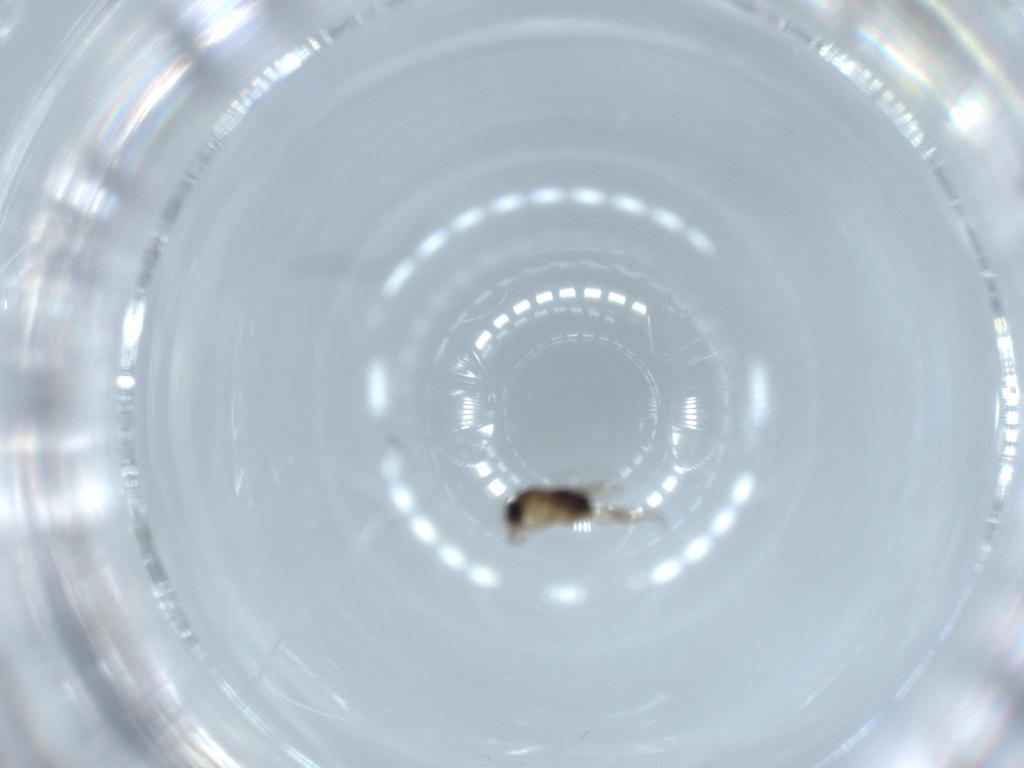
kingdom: Animalia
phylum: Arthropoda
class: Insecta
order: Diptera
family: Phoridae
